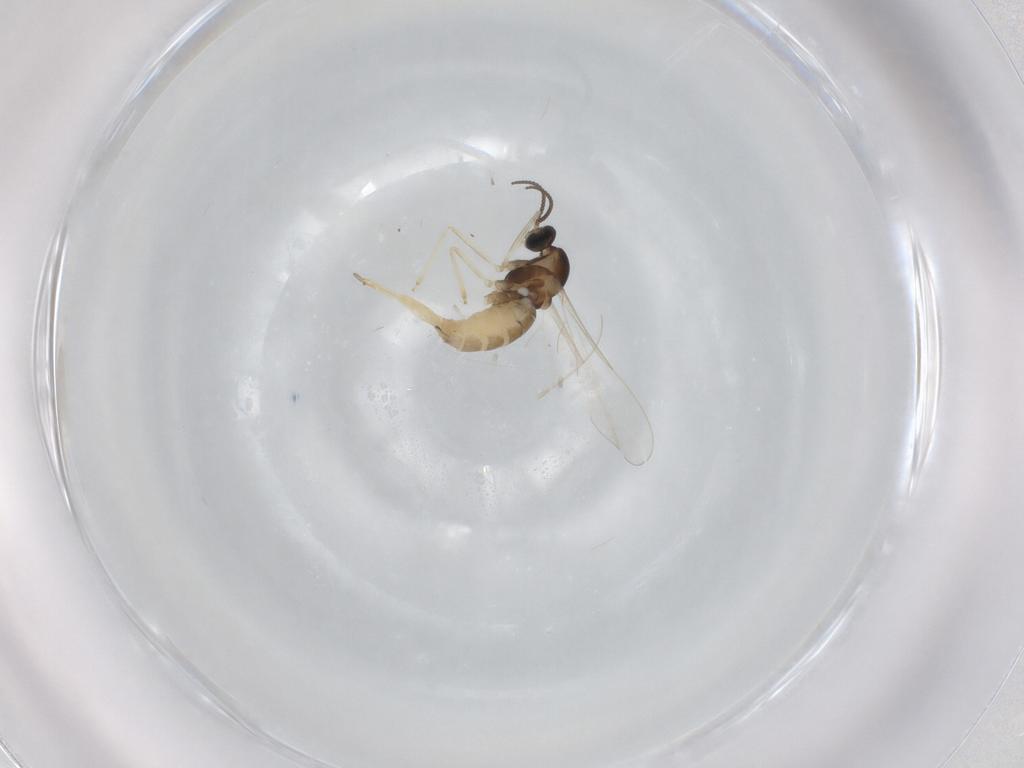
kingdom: Animalia
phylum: Arthropoda
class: Insecta
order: Diptera
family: Cecidomyiidae
